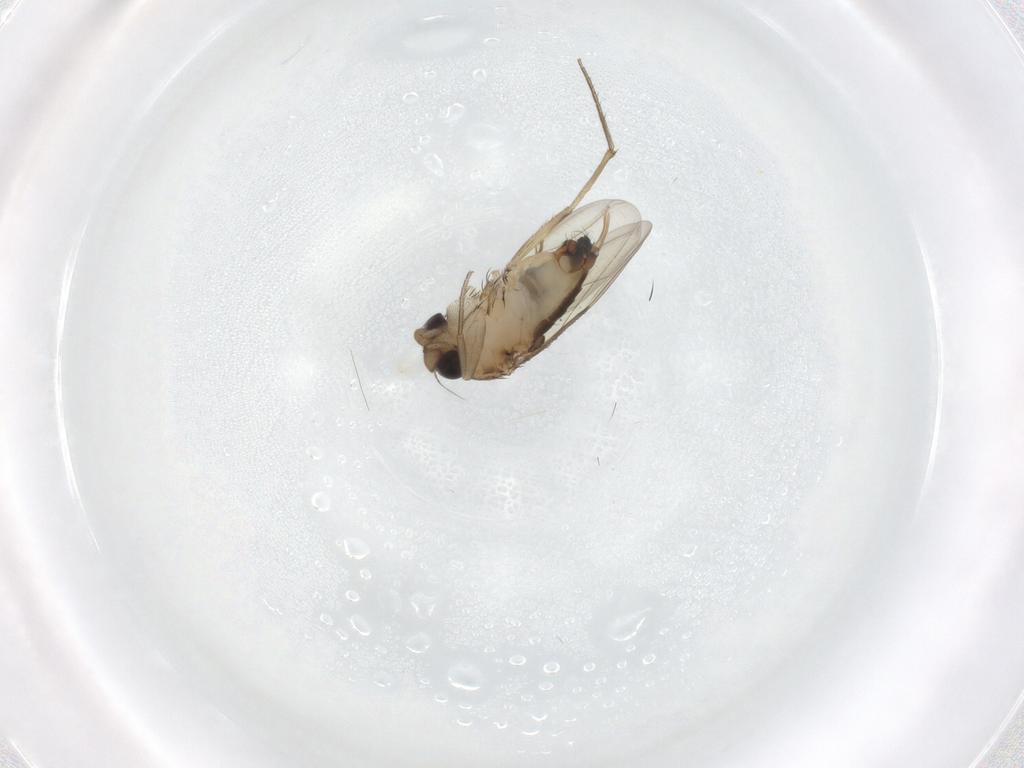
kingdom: Animalia
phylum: Arthropoda
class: Insecta
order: Diptera
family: Phoridae
